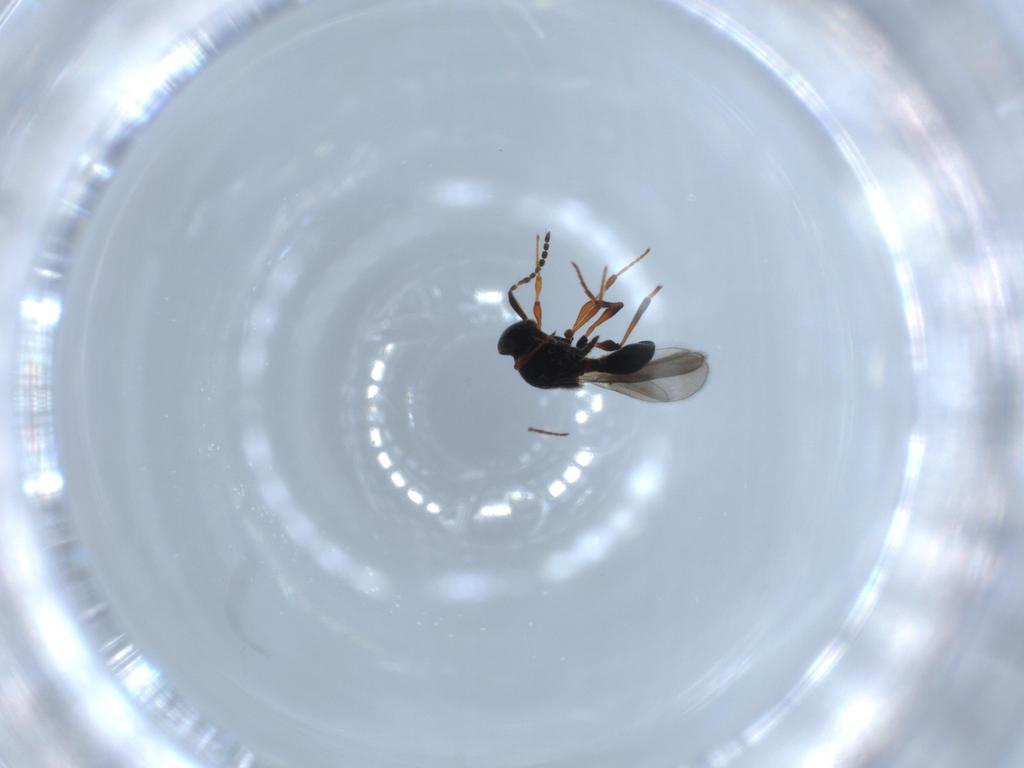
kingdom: Animalia
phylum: Arthropoda
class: Insecta
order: Hymenoptera
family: Platygastridae
